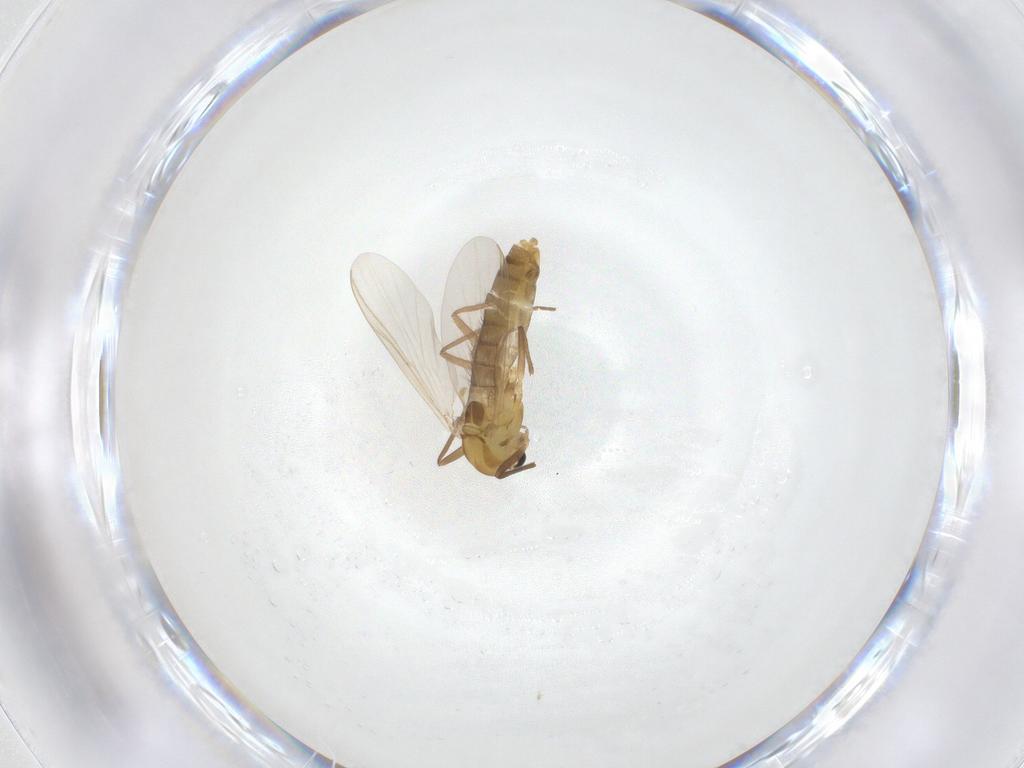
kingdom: Animalia
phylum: Arthropoda
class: Insecta
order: Diptera
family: Chironomidae
